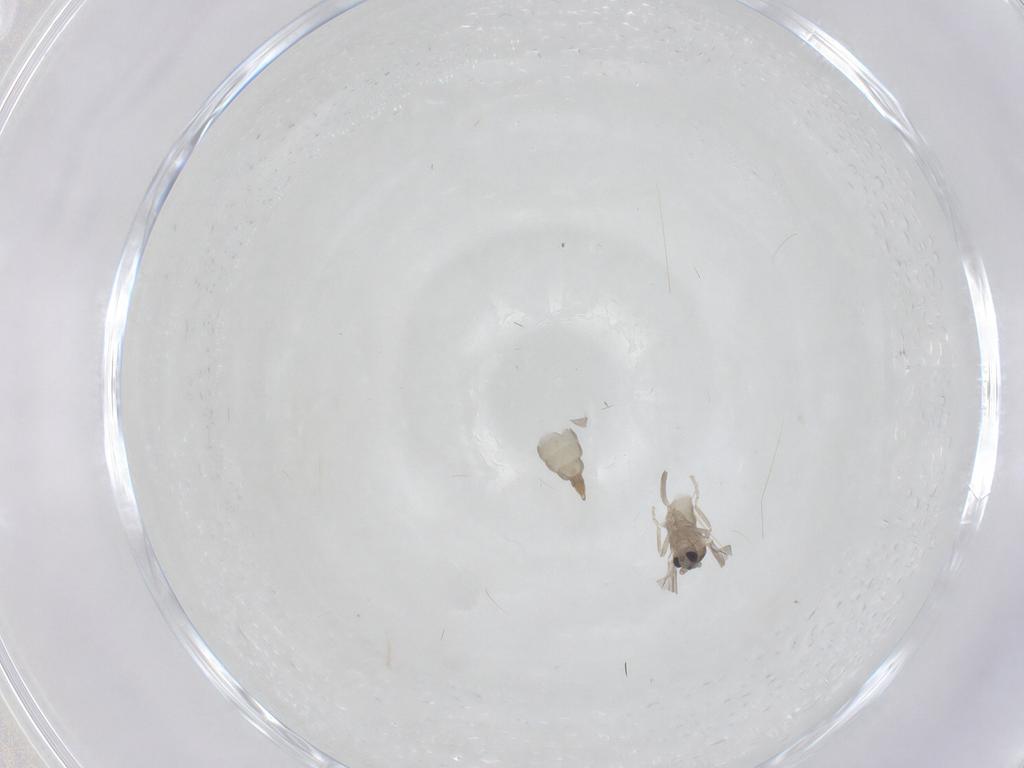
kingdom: Animalia
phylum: Arthropoda
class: Insecta
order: Diptera
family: Cecidomyiidae
